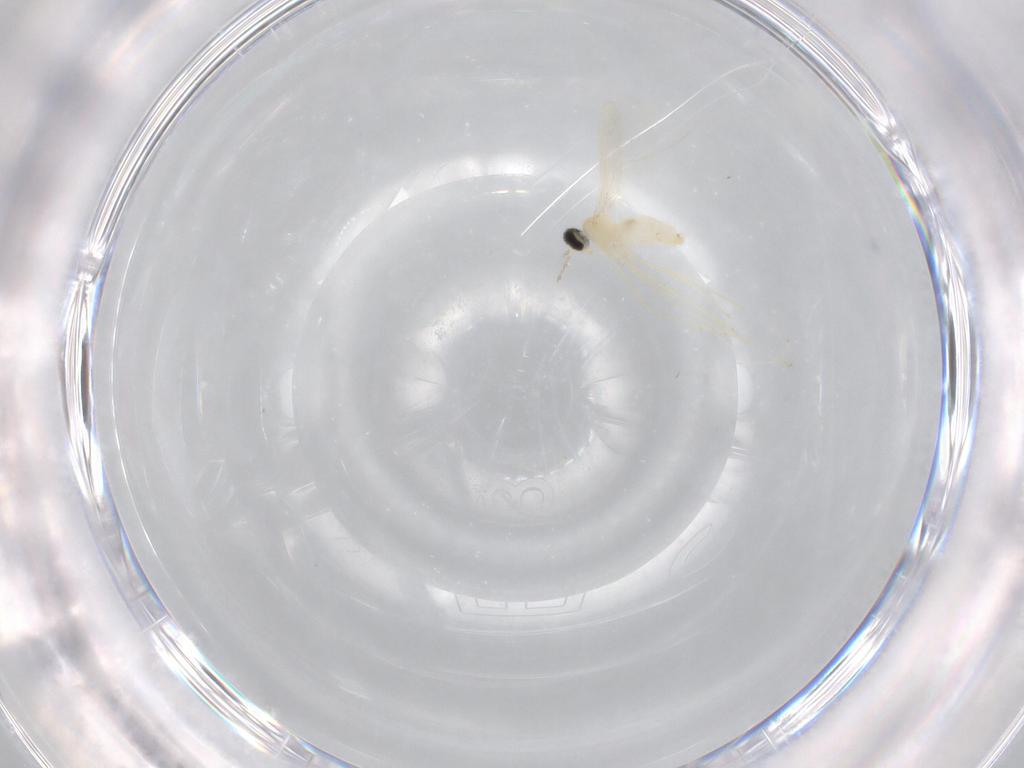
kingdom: Animalia
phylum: Arthropoda
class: Insecta
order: Diptera
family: Cecidomyiidae
